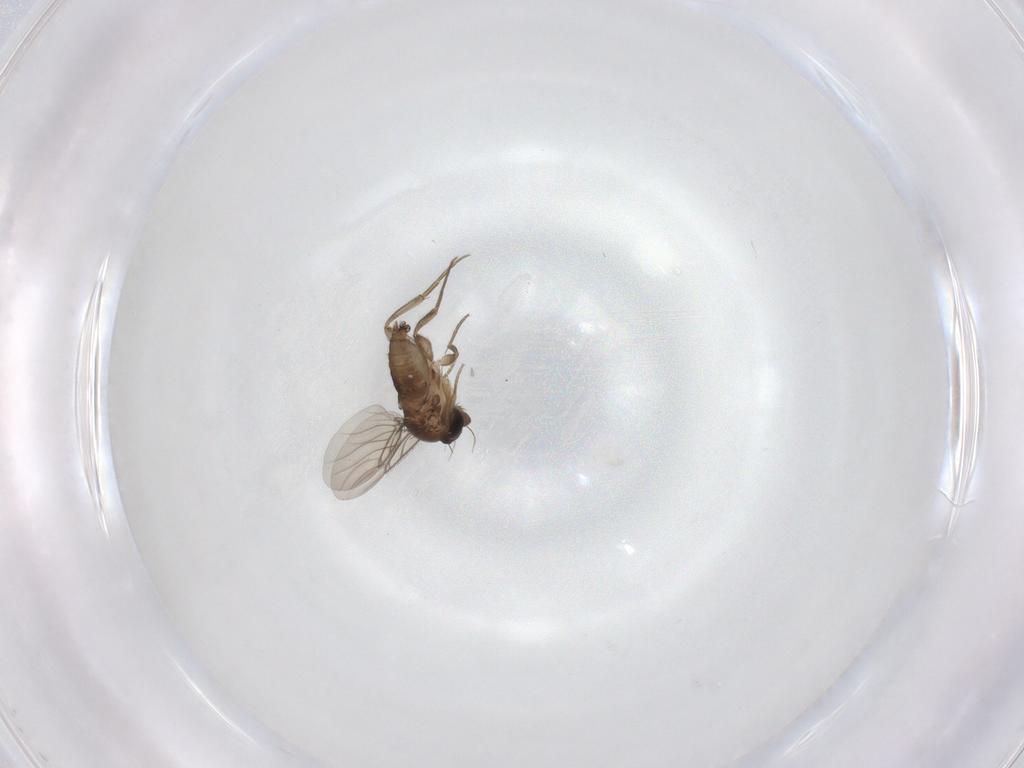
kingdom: Animalia
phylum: Arthropoda
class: Insecta
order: Diptera
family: Phoridae
